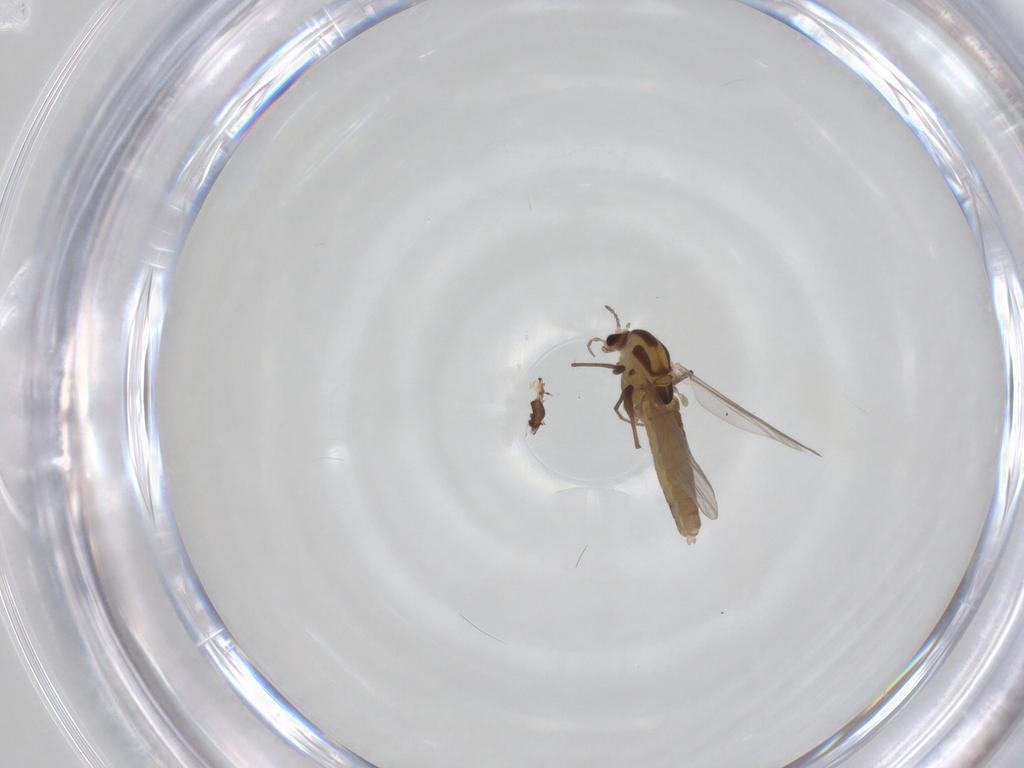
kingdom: Animalia
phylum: Arthropoda
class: Insecta
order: Diptera
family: Chironomidae
